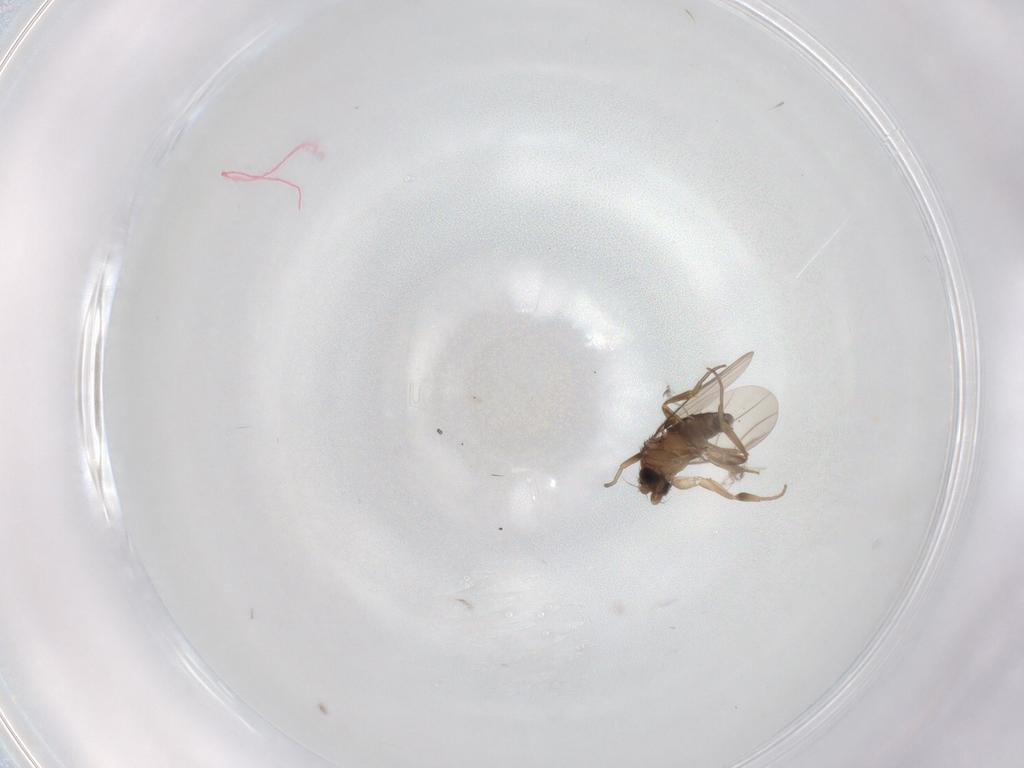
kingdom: Animalia
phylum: Arthropoda
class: Insecta
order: Diptera
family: Phoridae
